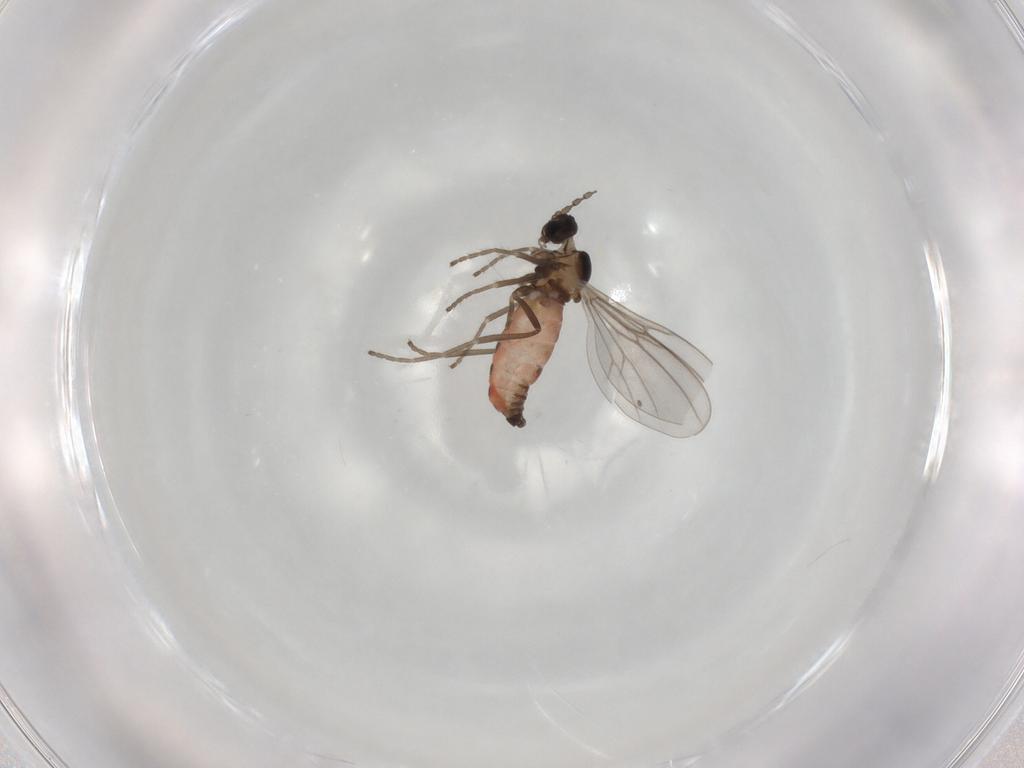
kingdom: Animalia
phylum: Arthropoda
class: Insecta
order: Diptera
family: Cecidomyiidae
